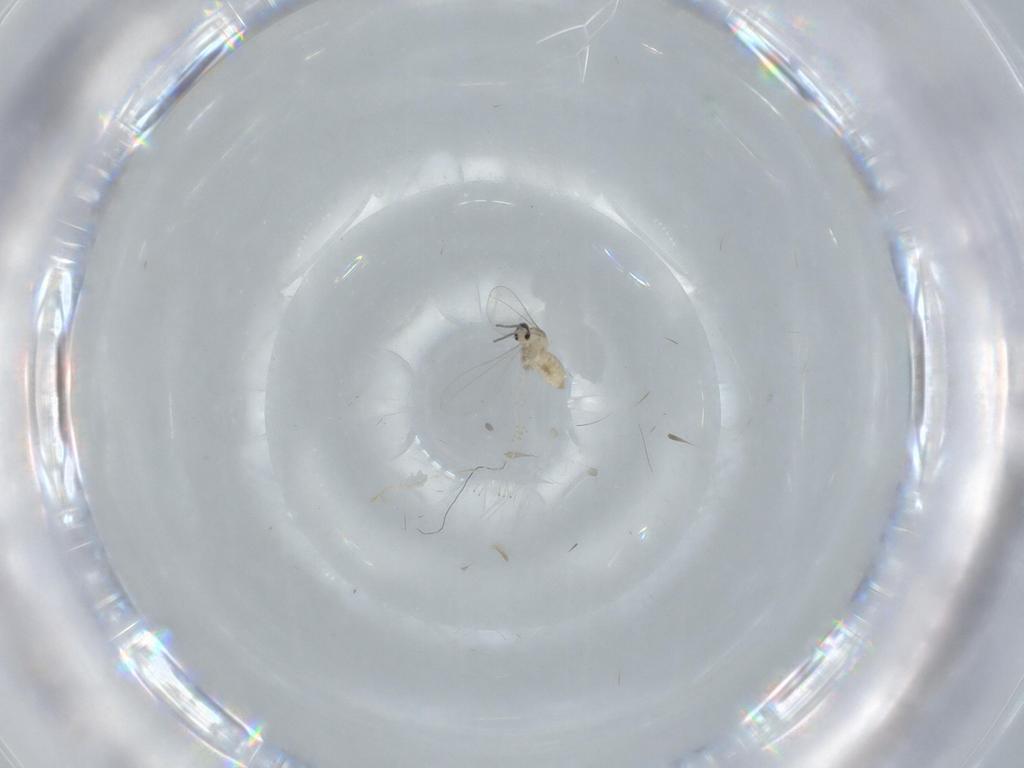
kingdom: Animalia
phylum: Arthropoda
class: Insecta
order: Diptera
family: Cecidomyiidae
